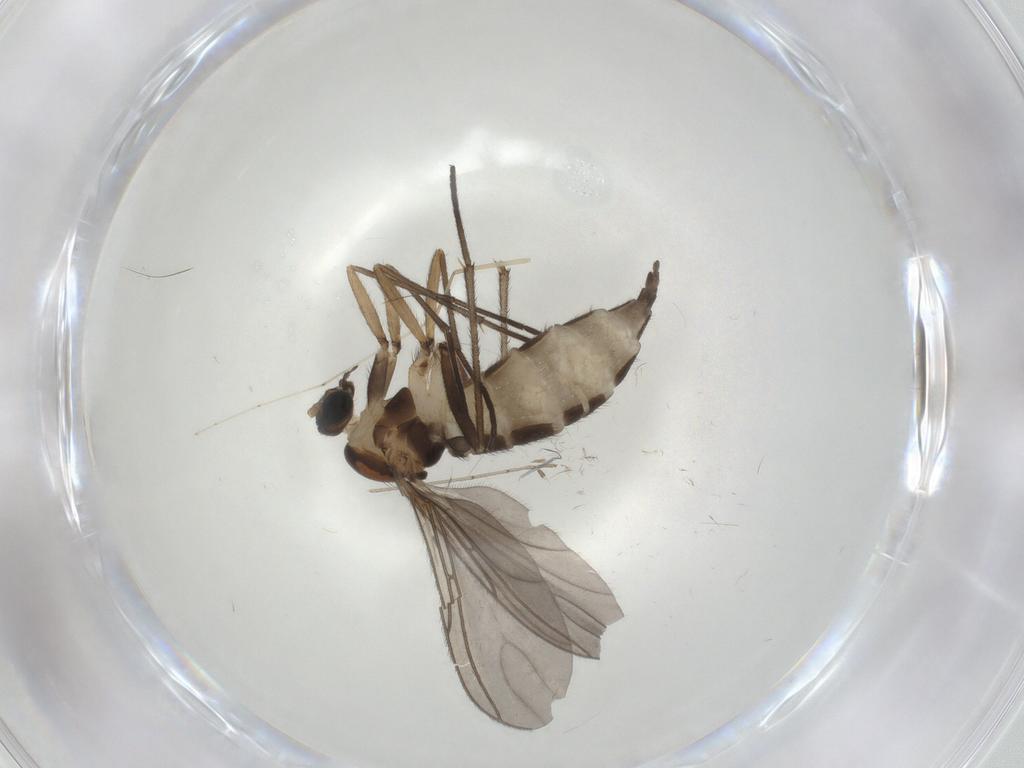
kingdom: Animalia
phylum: Arthropoda
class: Insecta
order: Diptera
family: Sciaridae
